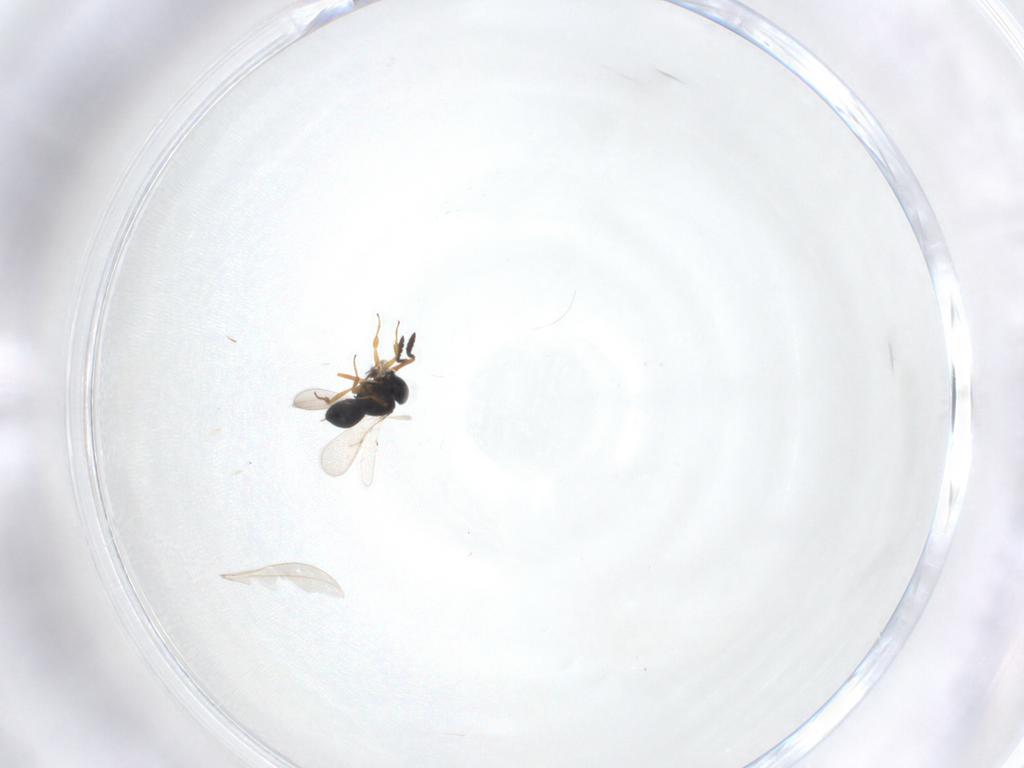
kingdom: Animalia
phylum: Arthropoda
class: Insecta
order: Hymenoptera
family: Scelionidae
